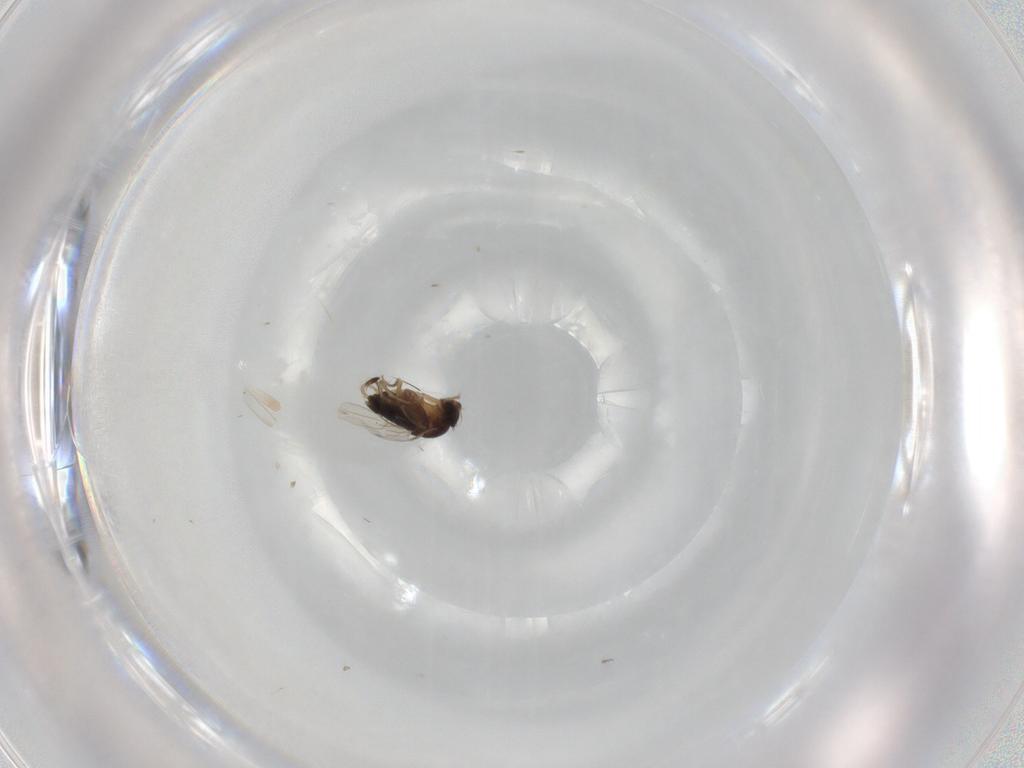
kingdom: Animalia
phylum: Arthropoda
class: Insecta
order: Diptera
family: Phoridae
